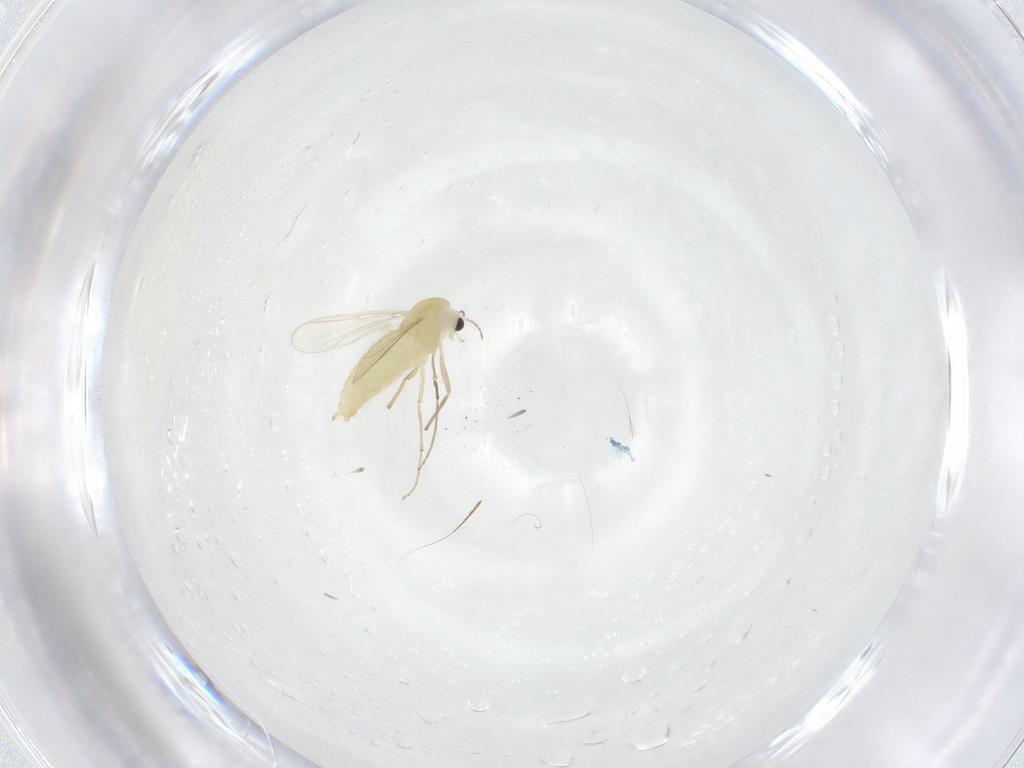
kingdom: Animalia
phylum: Arthropoda
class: Insecta
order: Diptera
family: Chironomidae
